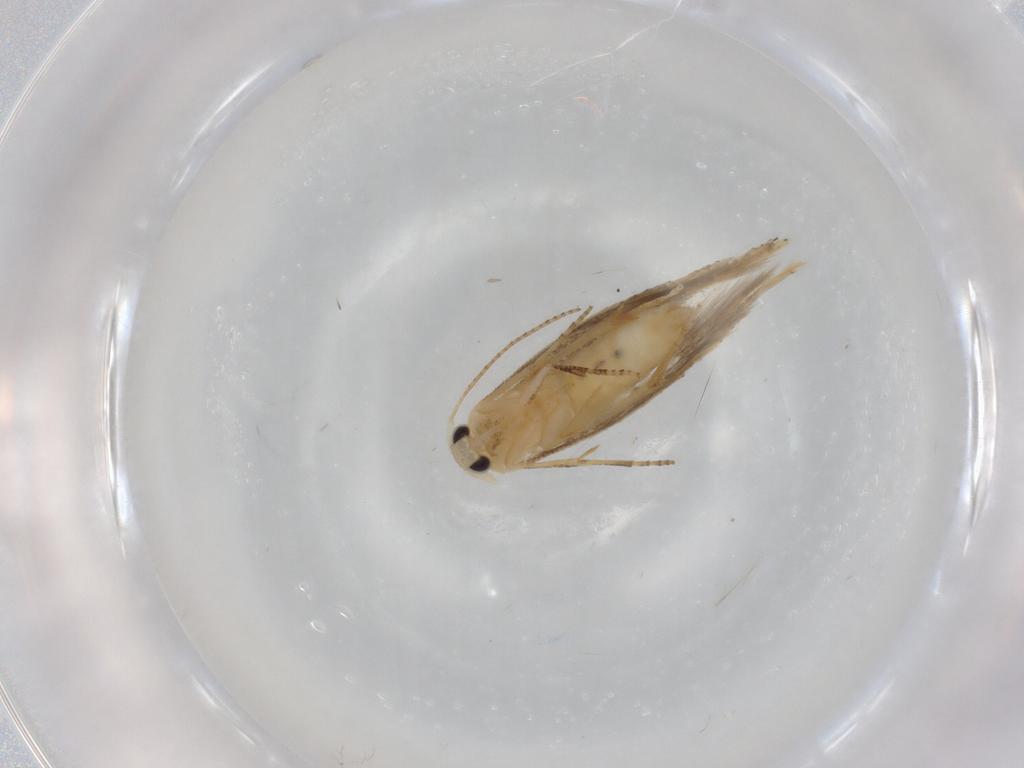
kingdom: Animalia
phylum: Arthropoda
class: Insecta
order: Lepidoptera
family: Bucculatricidae
